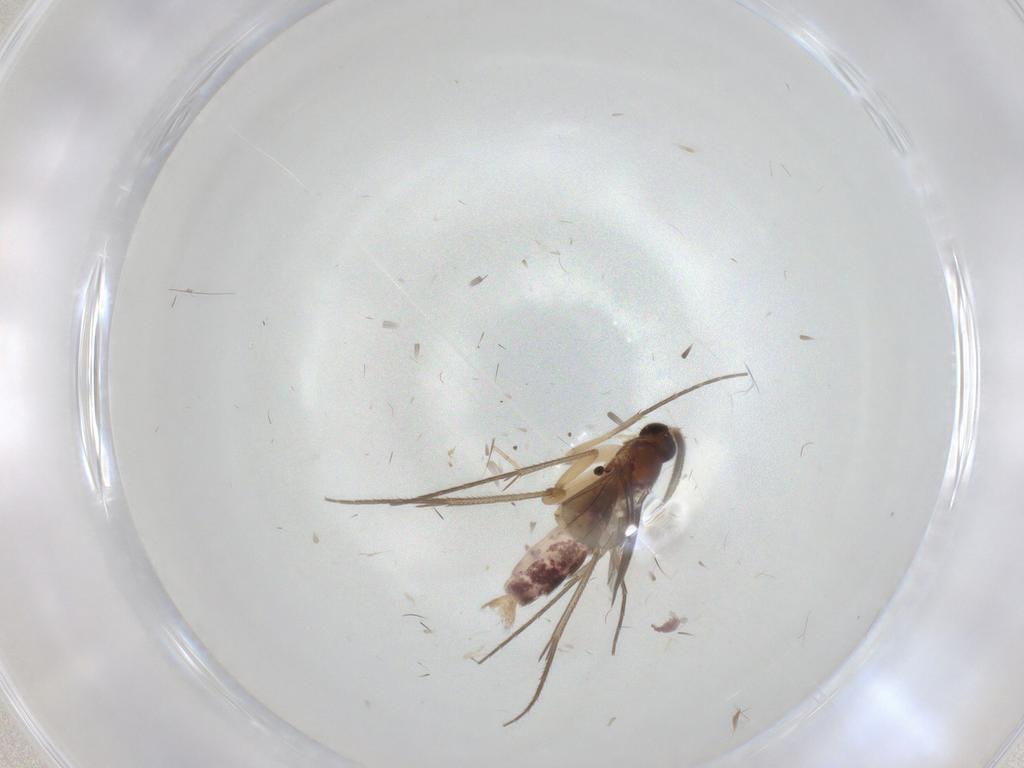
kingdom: Animalia
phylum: Arthropoda
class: Insecta
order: Diptera
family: Mycetophilidae
